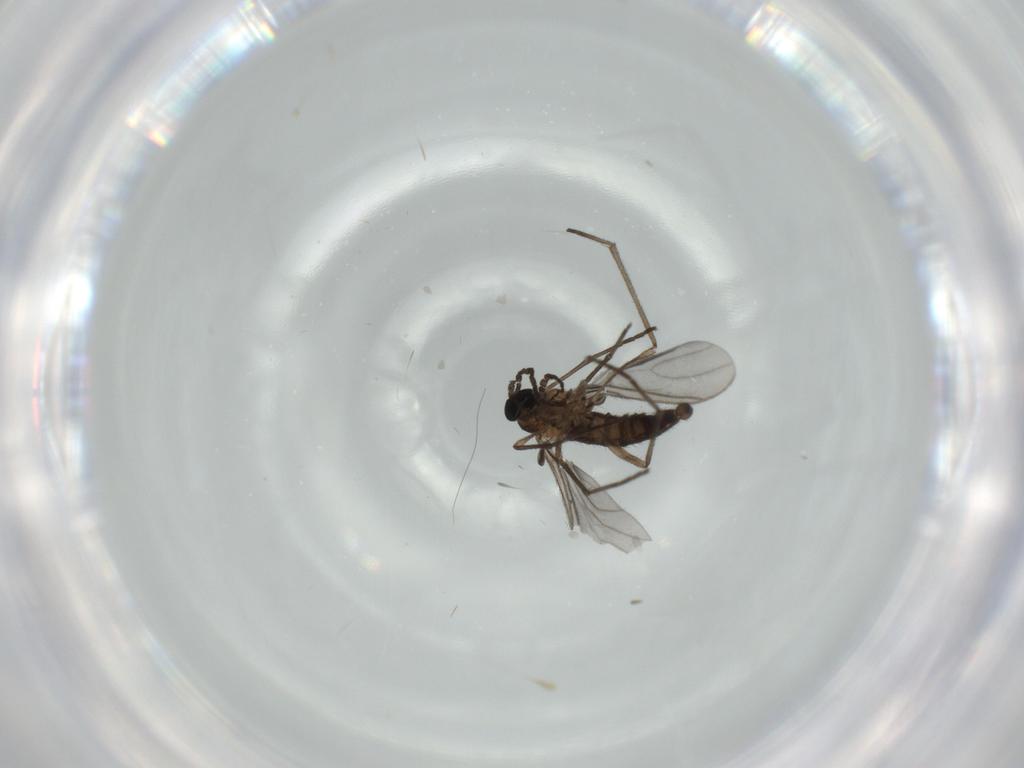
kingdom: Animalia
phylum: Arthropoda
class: Insecta
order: Diptera
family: Sciaridae
